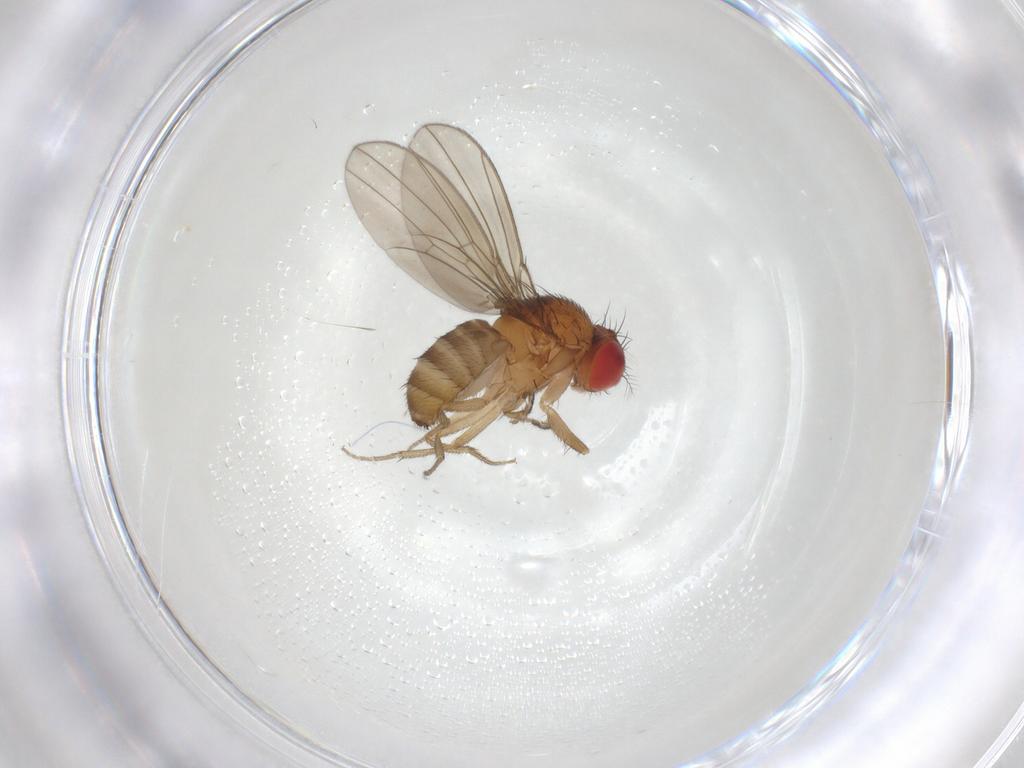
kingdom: Animalia
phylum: Arthropoda
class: Insecta
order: Diptera
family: Drosophilidae
